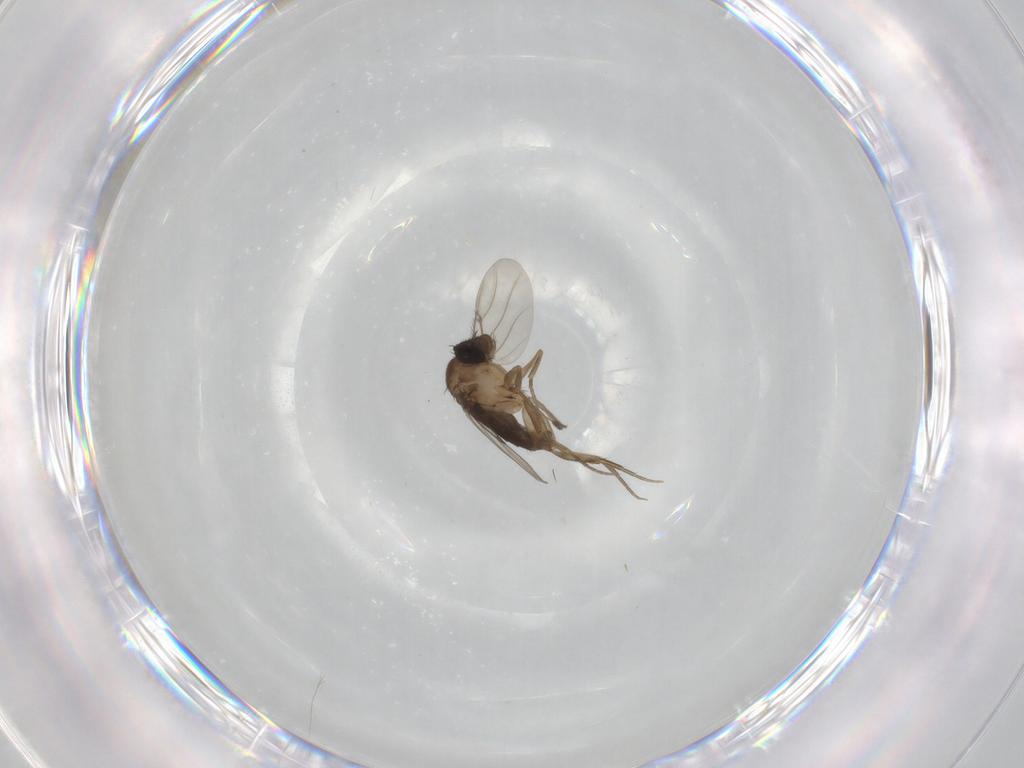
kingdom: Animalia
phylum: Arthropoda
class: Insecta
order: Diptera
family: Phoridae
